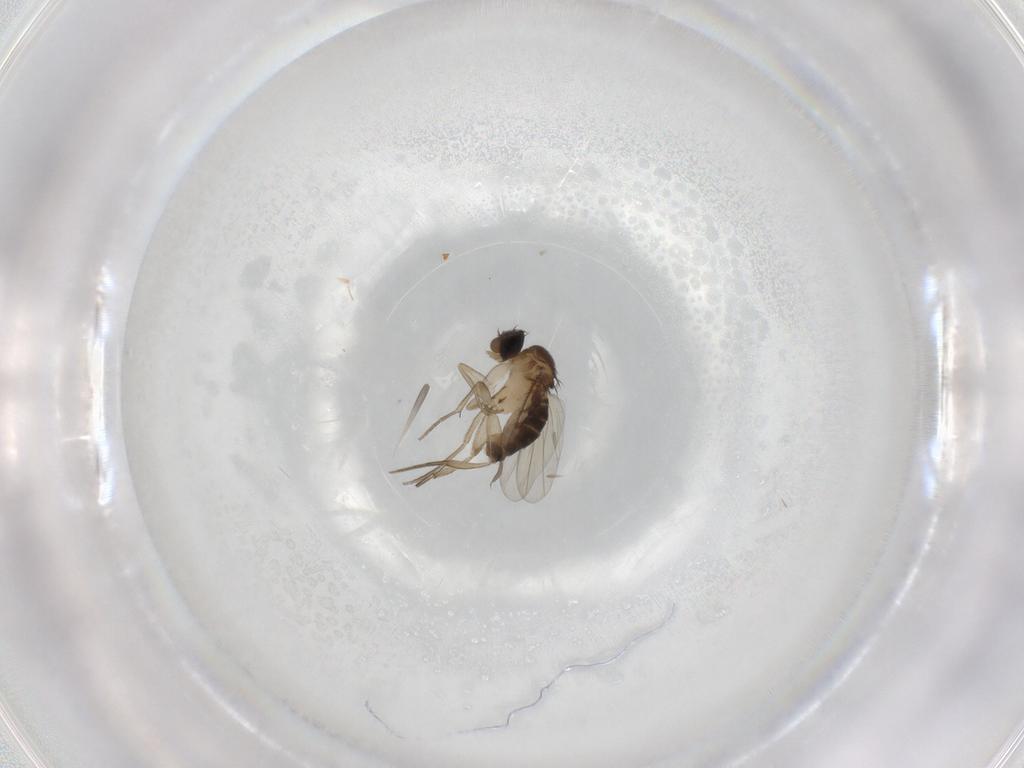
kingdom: Animalia
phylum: Arthropoda
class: Insecta
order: Diptera
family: Phoridae
